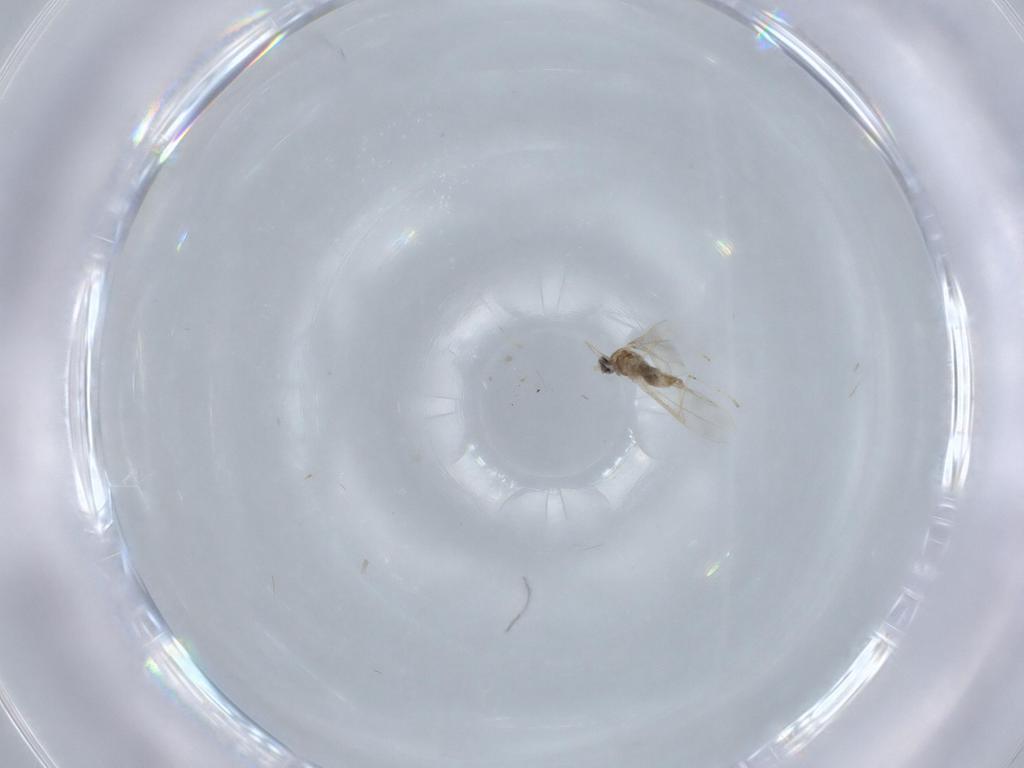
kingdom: Animalia
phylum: Arthropoda
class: Insecta
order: Diptera
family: Cecidomyiidae
